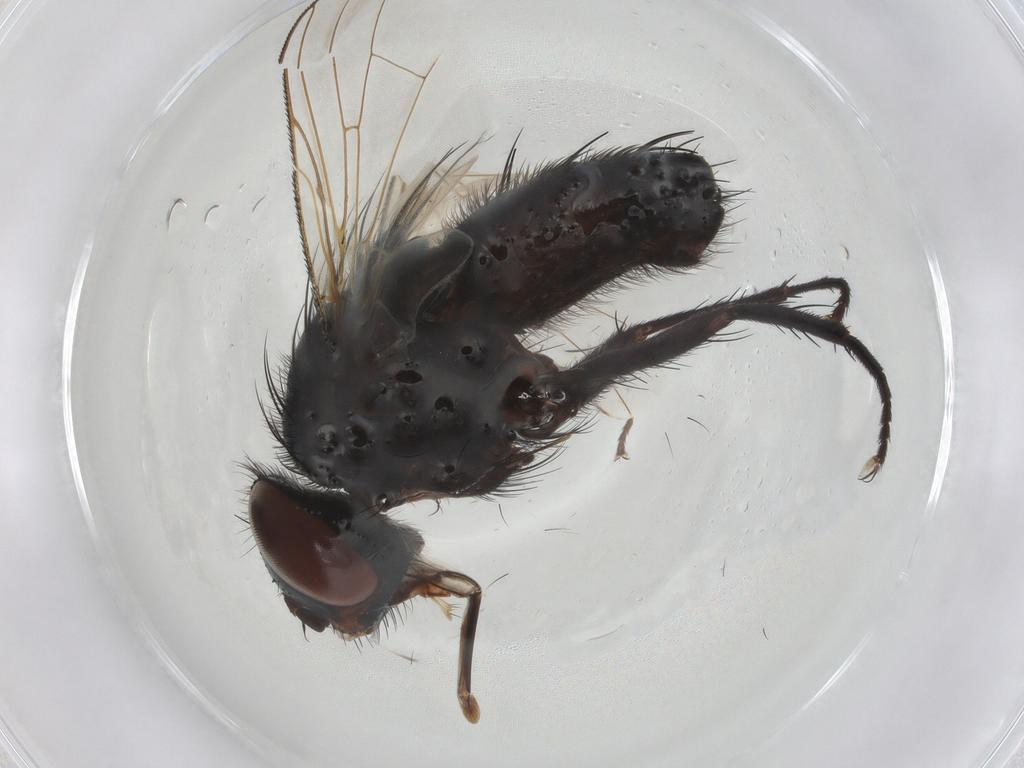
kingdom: Animalia
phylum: Arthropoda
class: Insecta
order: Diptera
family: Tachinidae
